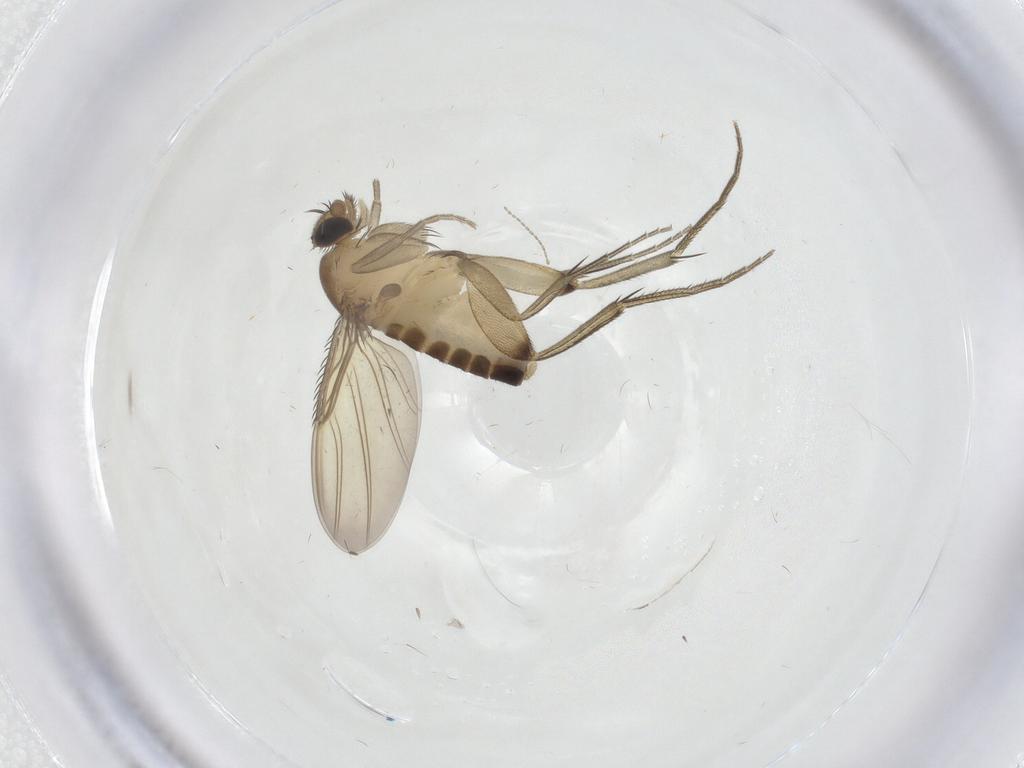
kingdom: Animalia
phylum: Arthropoda
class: Insecta
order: Diptera
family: Phoridae
